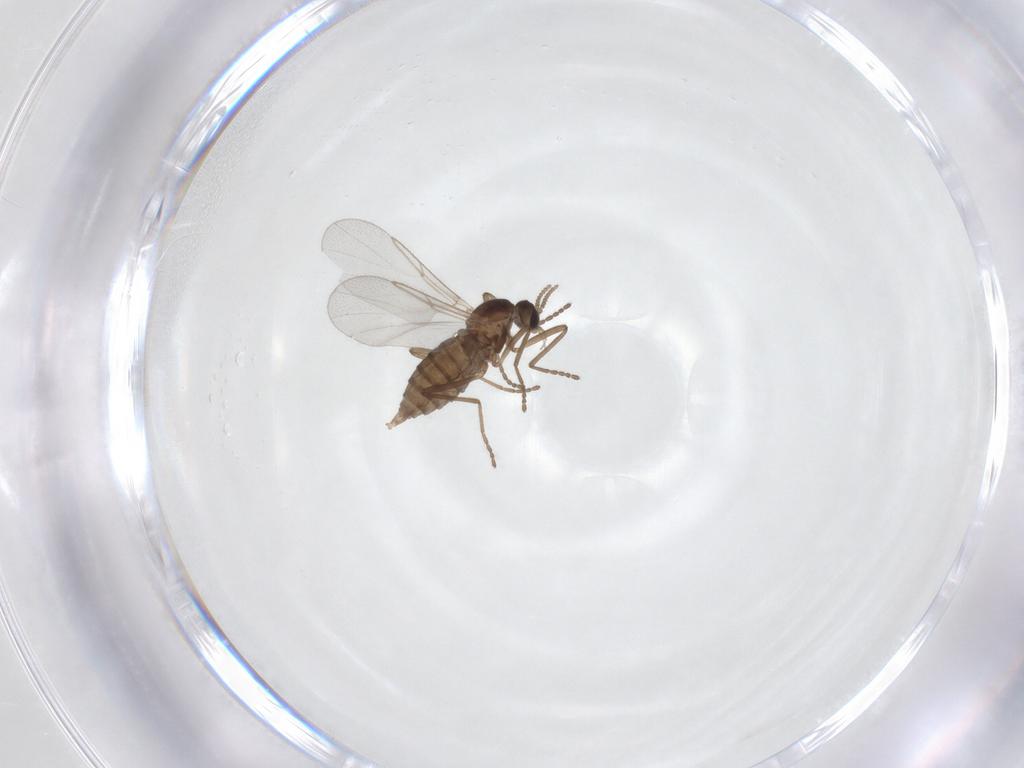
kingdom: Animalia
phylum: Arthropoda
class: Insecta
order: Diptera
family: Cecidomyiidae
